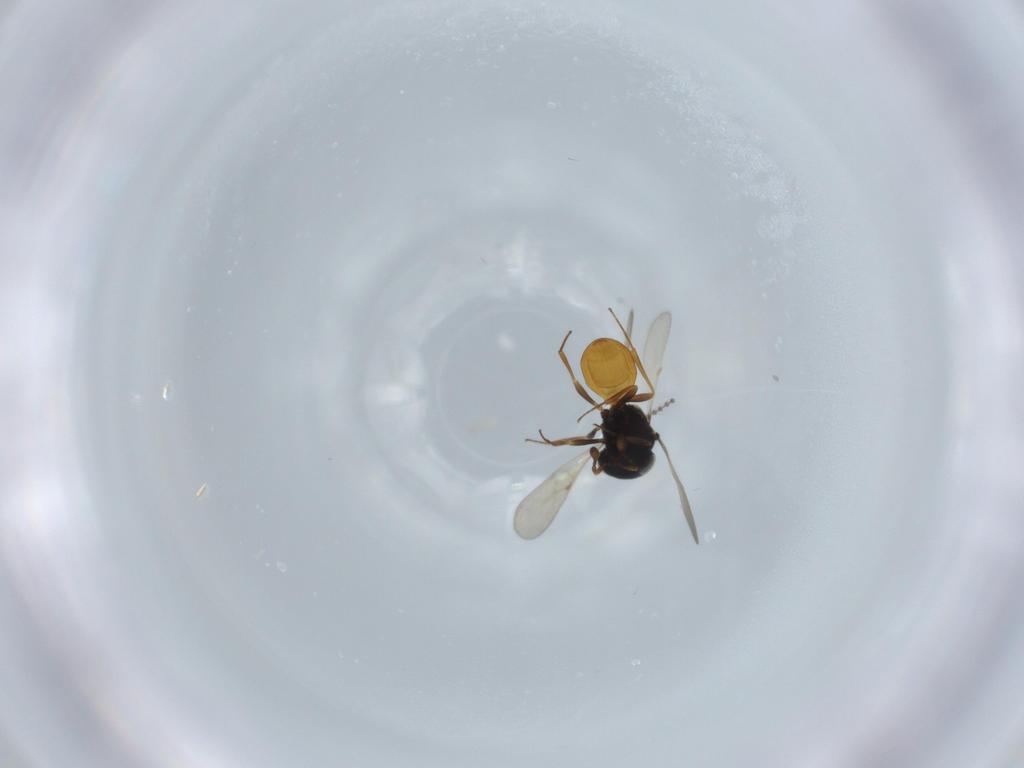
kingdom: Animalia
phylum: Arthropoda
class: Insecta
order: Hymenoptera
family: Scelionidae
